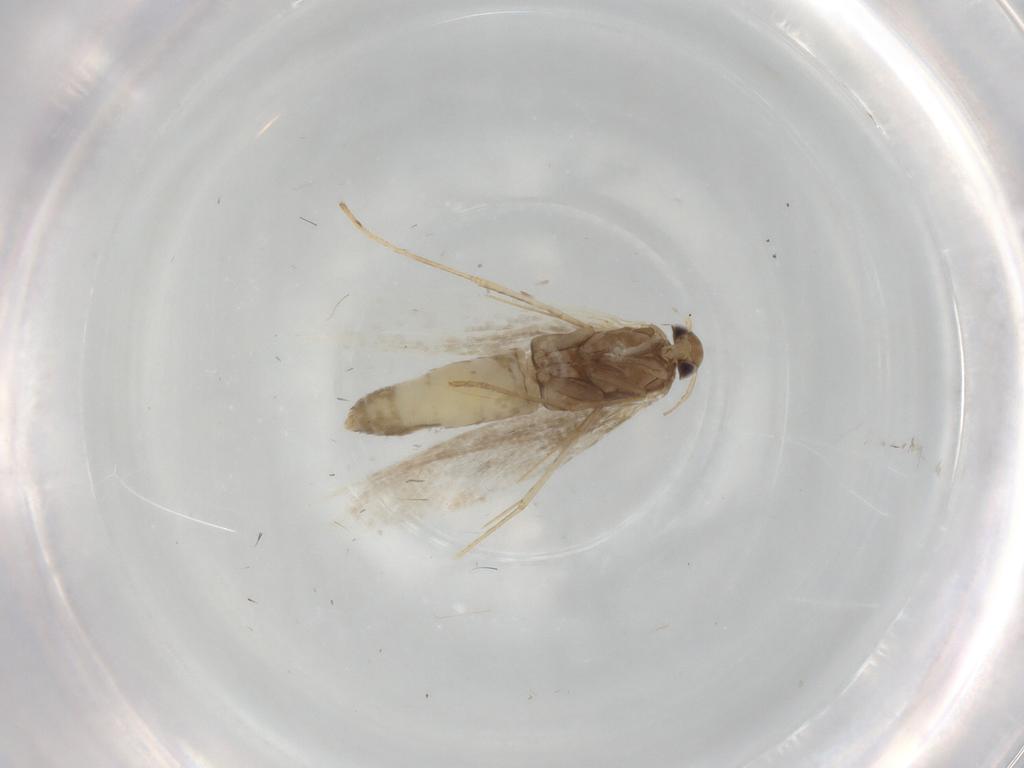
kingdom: Animalia
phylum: Arthropoda
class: Insecta
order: Lepidoptera
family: Gracillariidae
